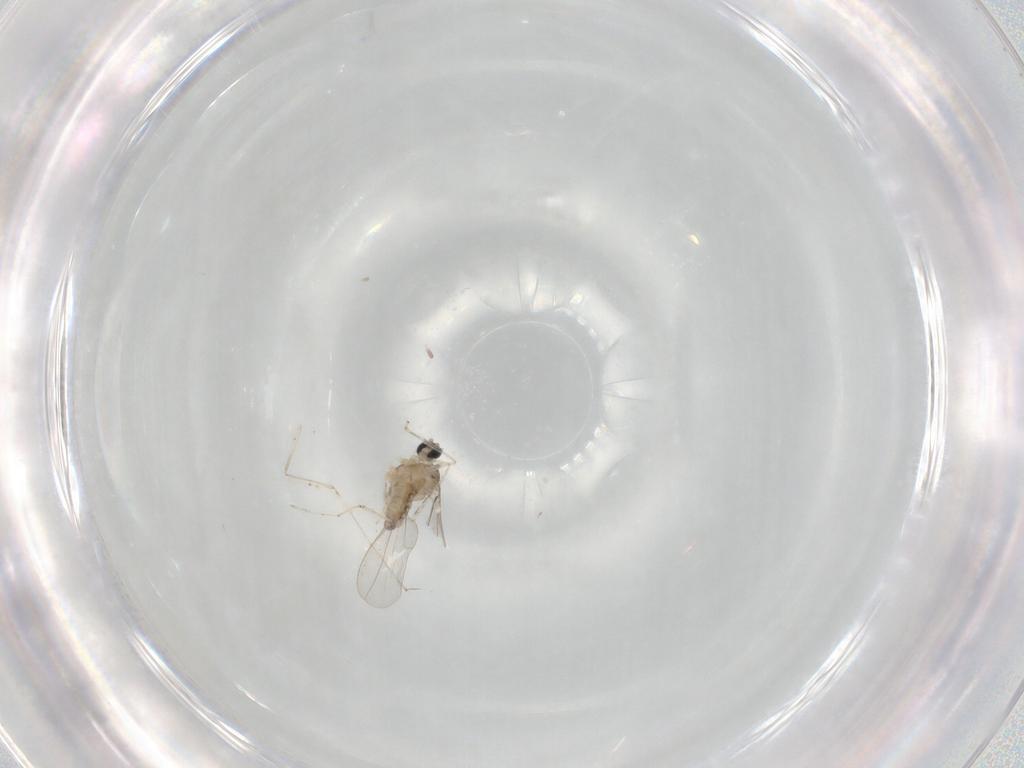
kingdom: Animalia
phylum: Arthropoda
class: Insecta
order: Diptera
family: Cecidomyiidae
